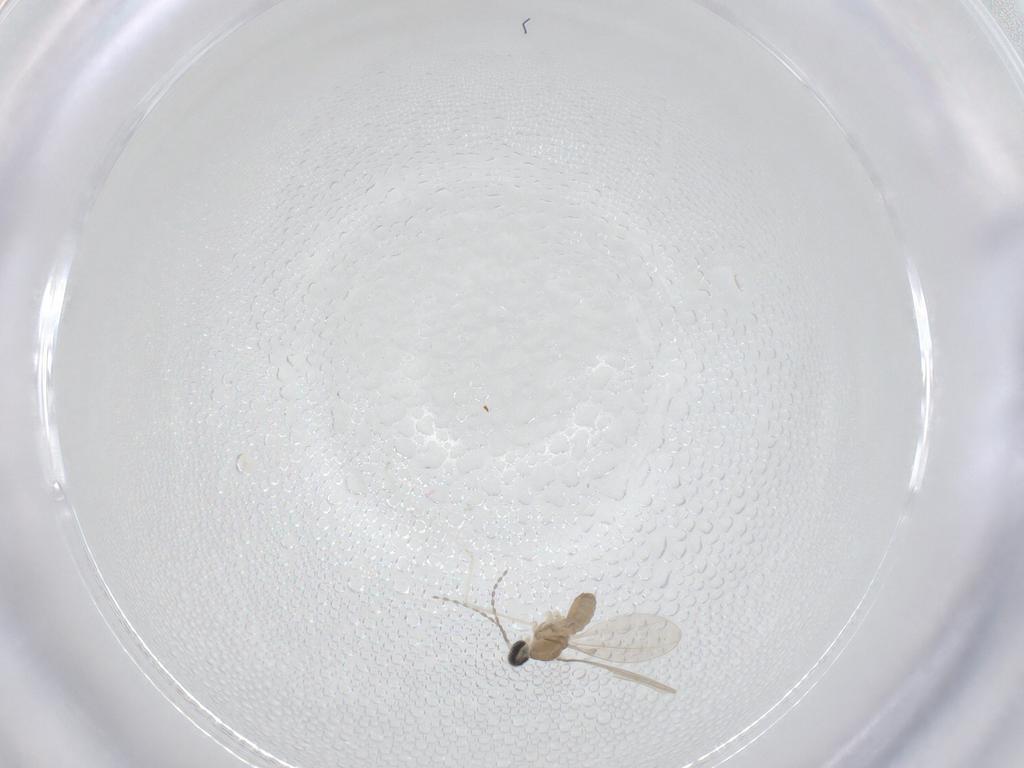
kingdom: Animalia
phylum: Arthropoda
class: Insecta
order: Diptera
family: Cecidomyiidae
